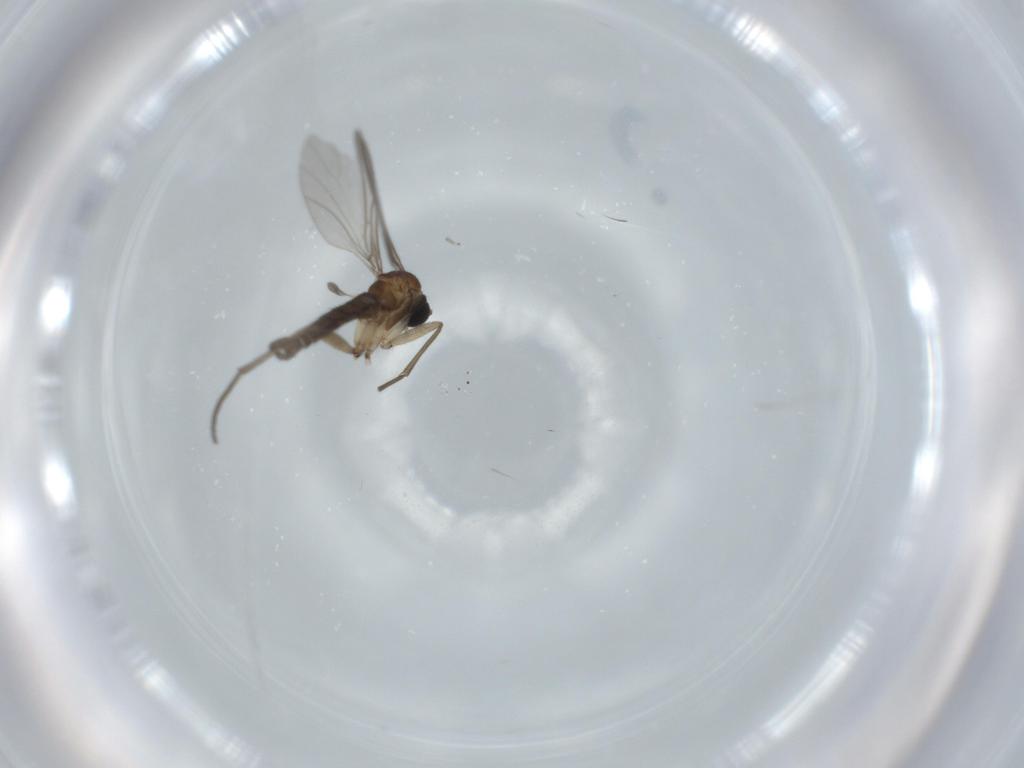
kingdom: Animalia
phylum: Arthropoda
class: Insecta
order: Diptera
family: Sciaridae
